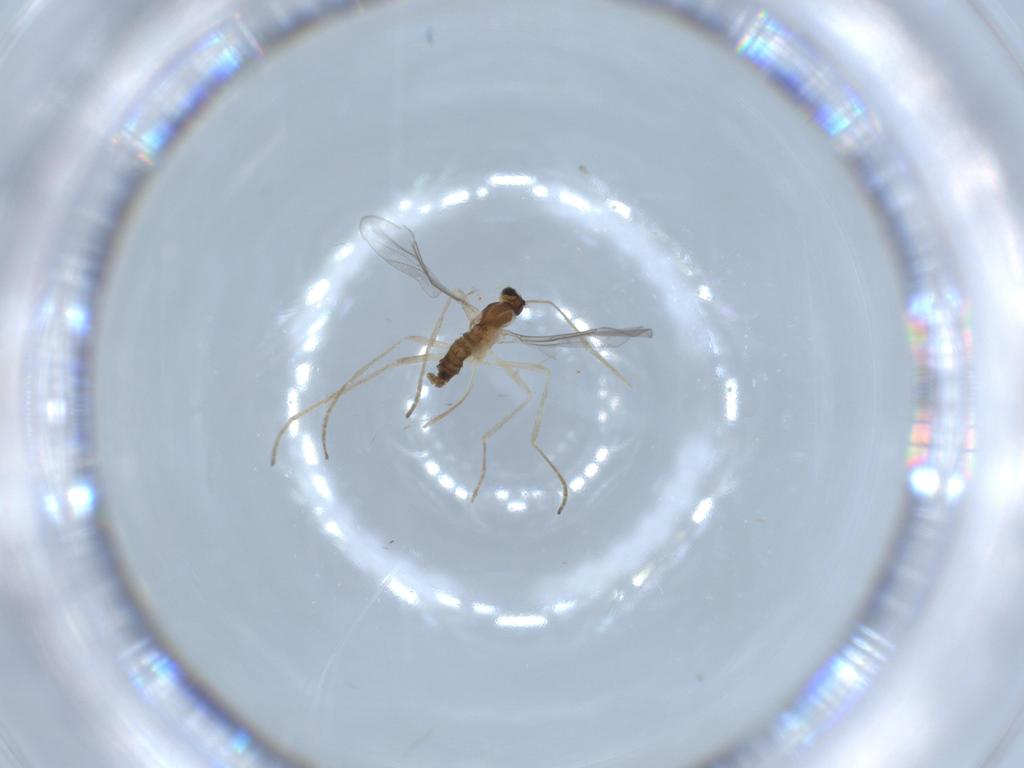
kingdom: Animalia
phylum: Arthropoda
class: Insecta
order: Diptera
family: Cecidomyiidae
